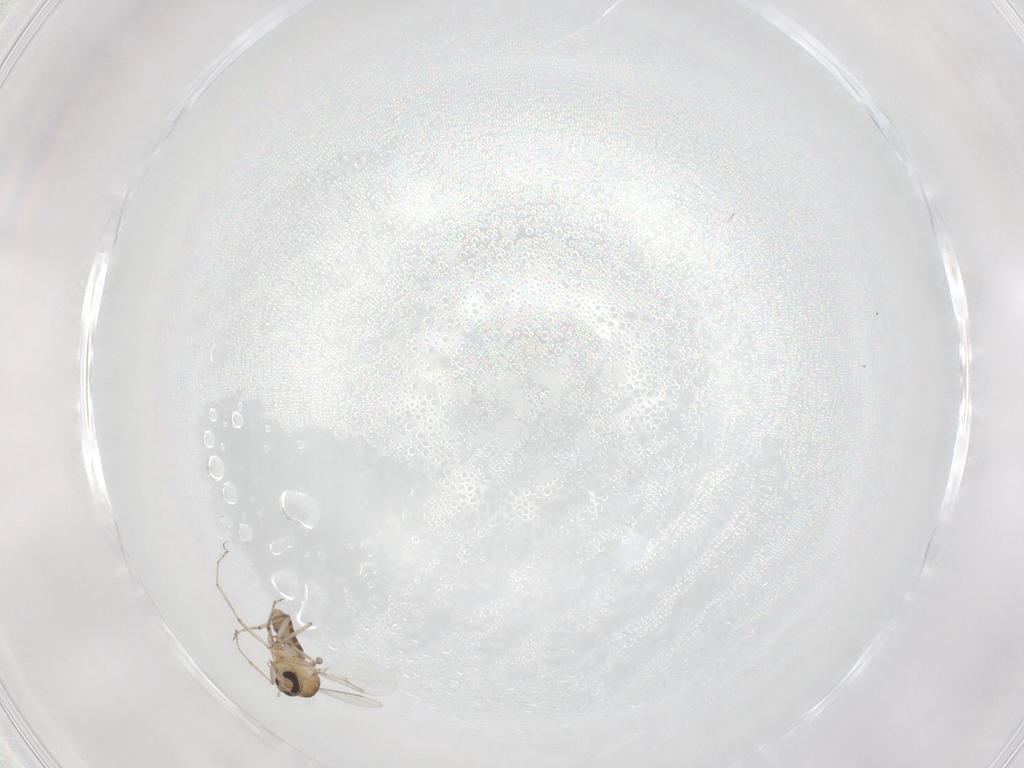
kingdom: Animalia
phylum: Arthropoda
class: Insecta
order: Diptera
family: Ceratopogonidae
